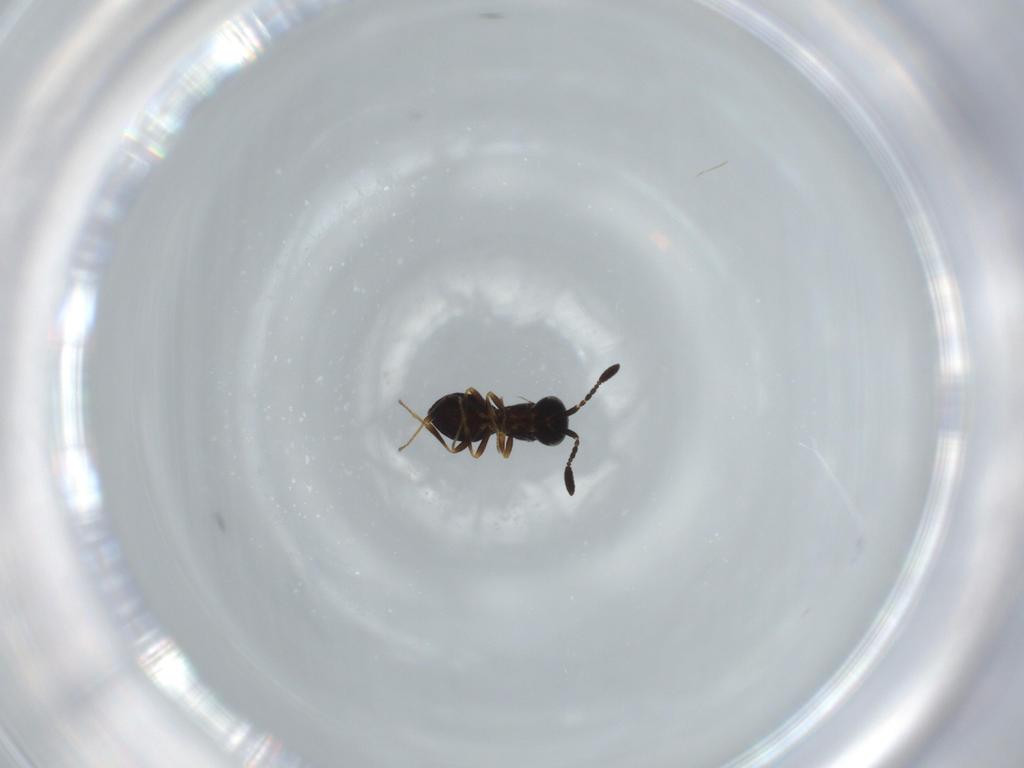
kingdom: Animalia
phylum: Arthropoda
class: Insecta
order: Hymenoptera
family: Scelionidae
